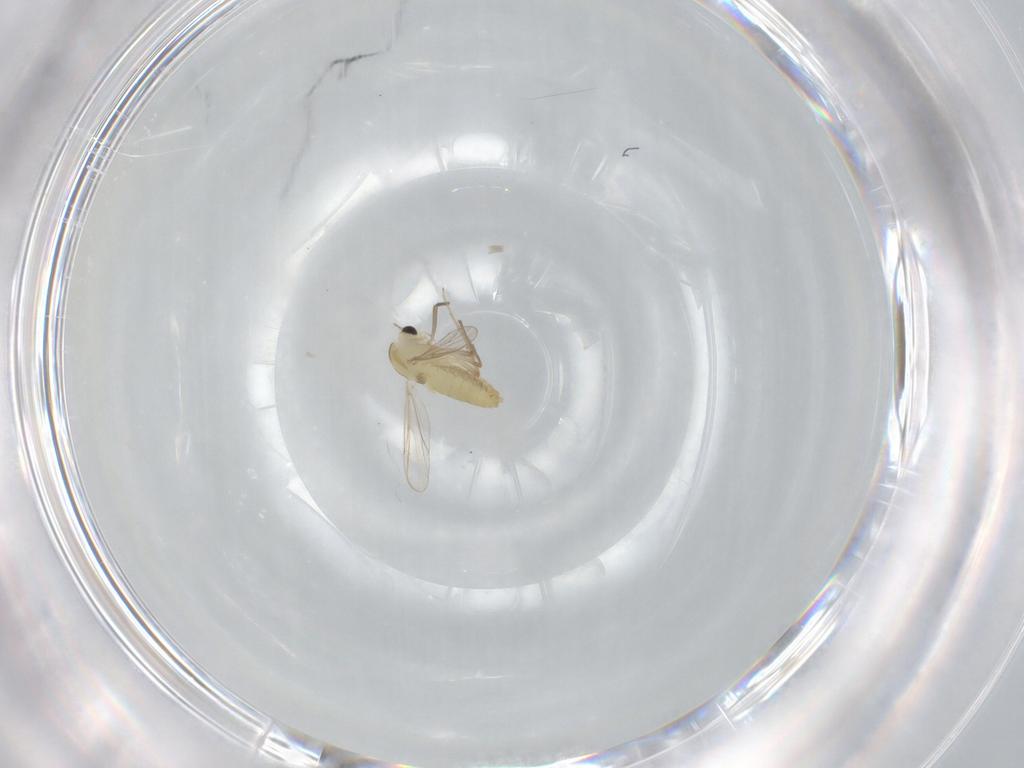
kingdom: Animalia
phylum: Arthropoda
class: Insecta
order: Diptera
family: Chironomidae
